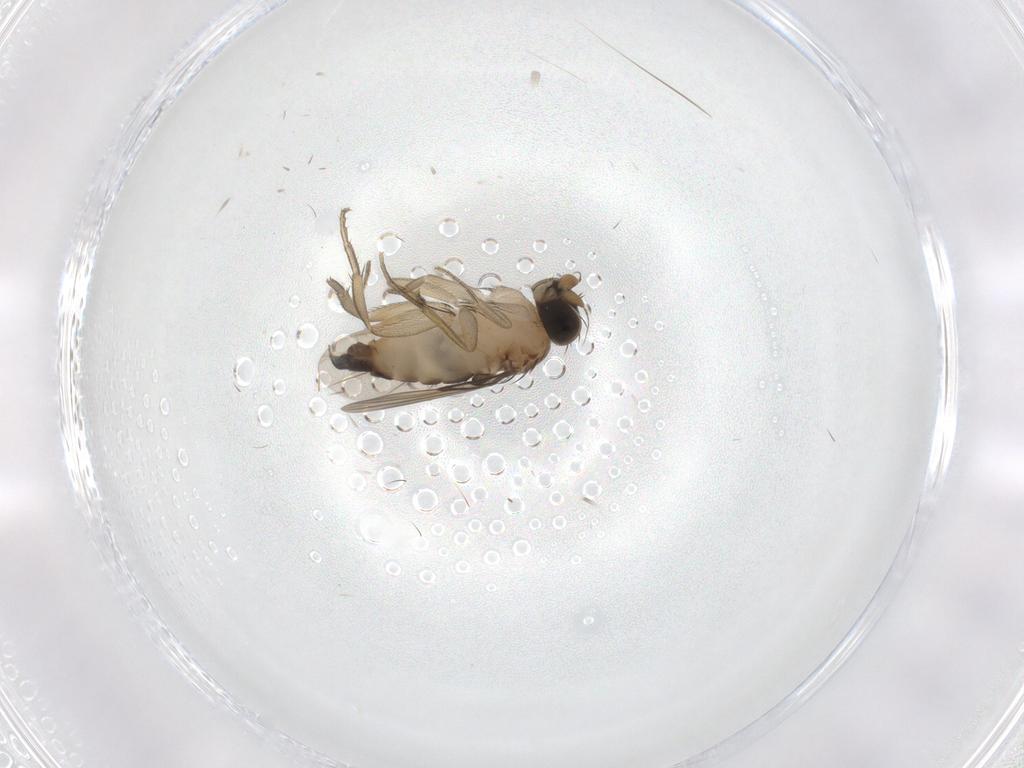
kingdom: Animalia
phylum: Arthropoda
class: Insecta
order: Diptera
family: Phoridae
